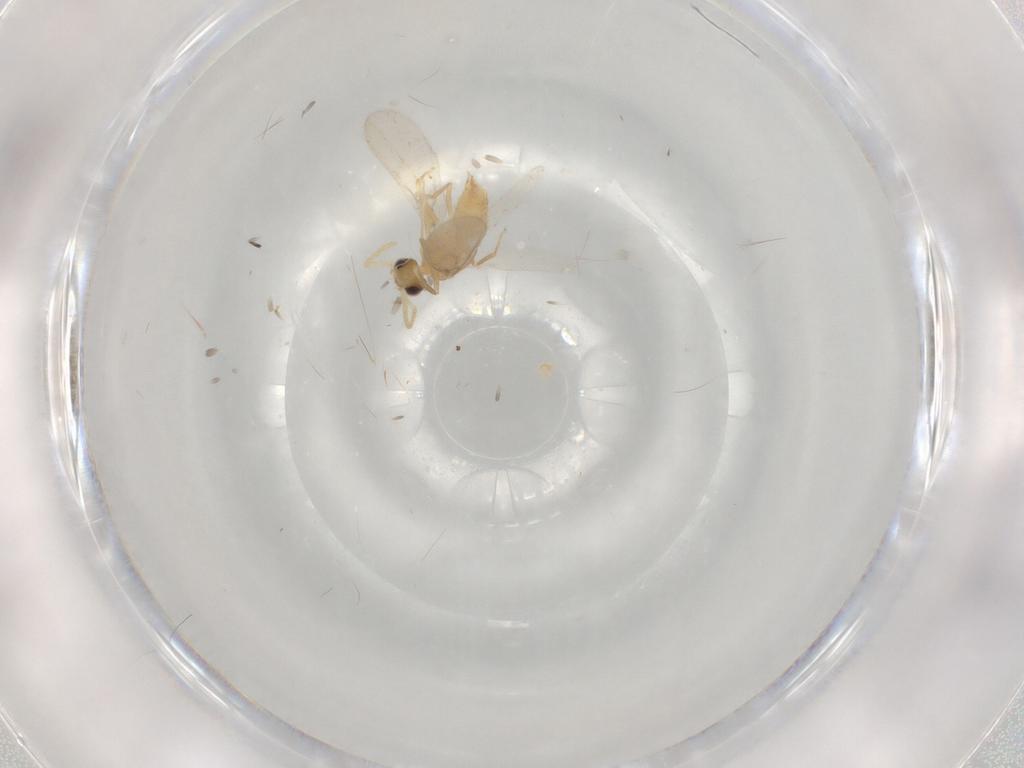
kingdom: Animalia
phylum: Arthropoda
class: Insecta
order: Hymenoptera
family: Formicidae
